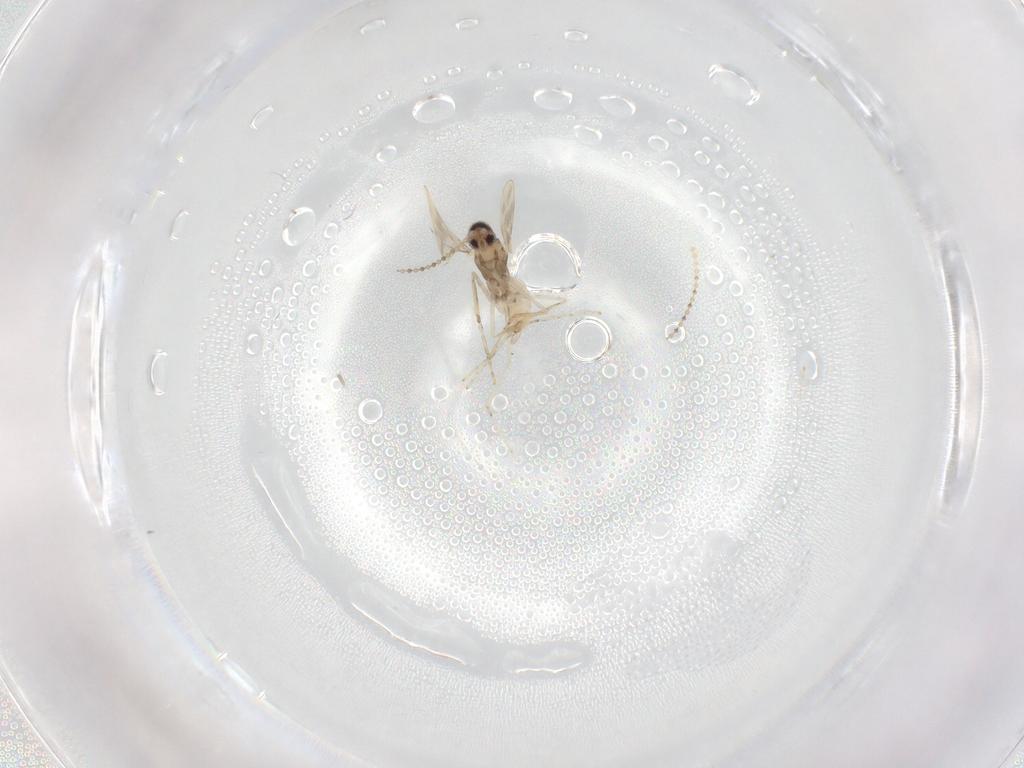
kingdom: Animalia
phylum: Arthropoda
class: Insecta
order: Diptera
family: Cecidomyiidae
